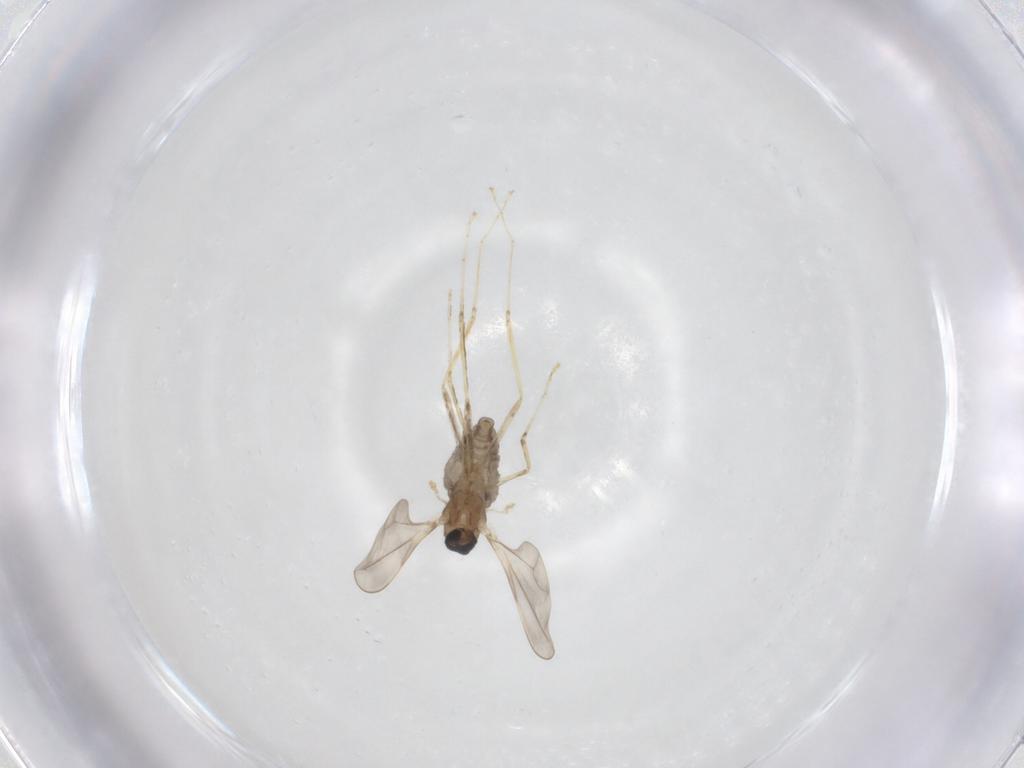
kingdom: Animalia
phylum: Arthropoda
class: Insecta
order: Diptera
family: Cecidomyiidae
